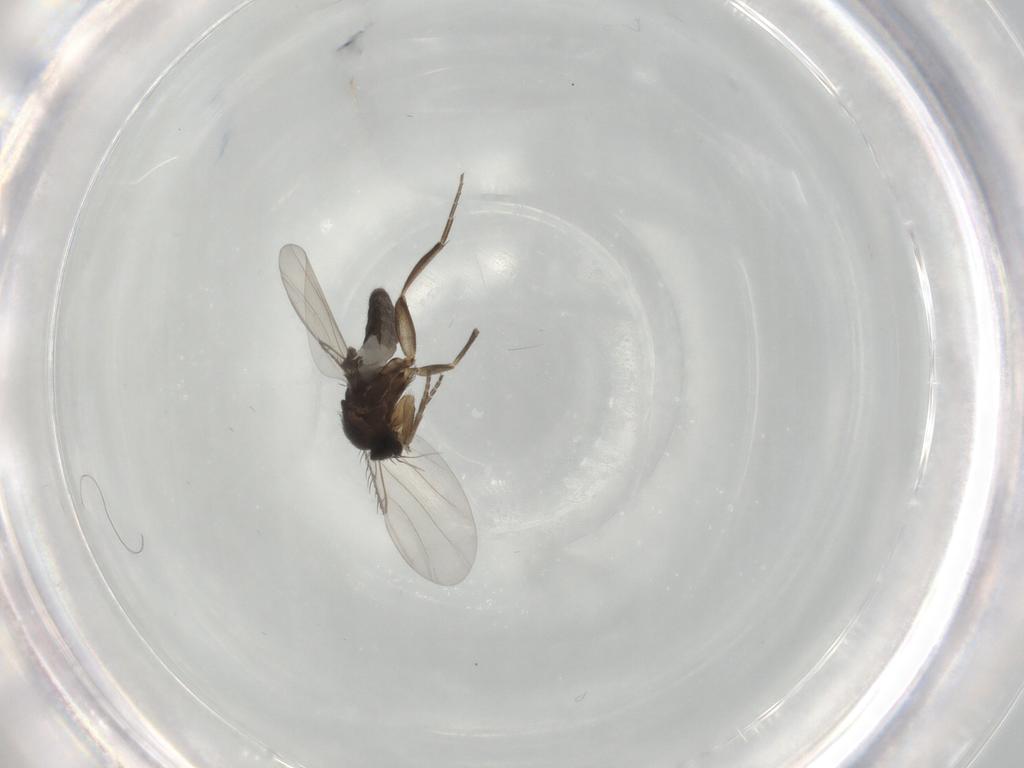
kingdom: Animalia
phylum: Arthropoda
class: Insecta
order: Diptera
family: Phoridae
